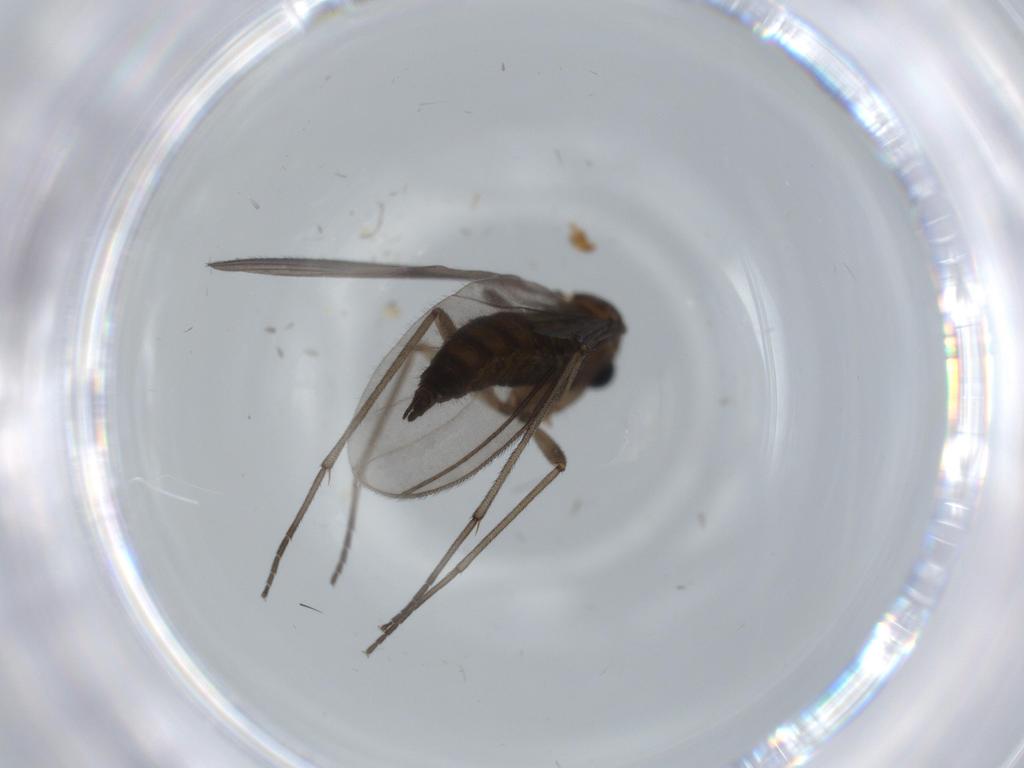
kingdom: Animalia
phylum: Arthropoda
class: Insecta
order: Diptera
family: Sciaridae
